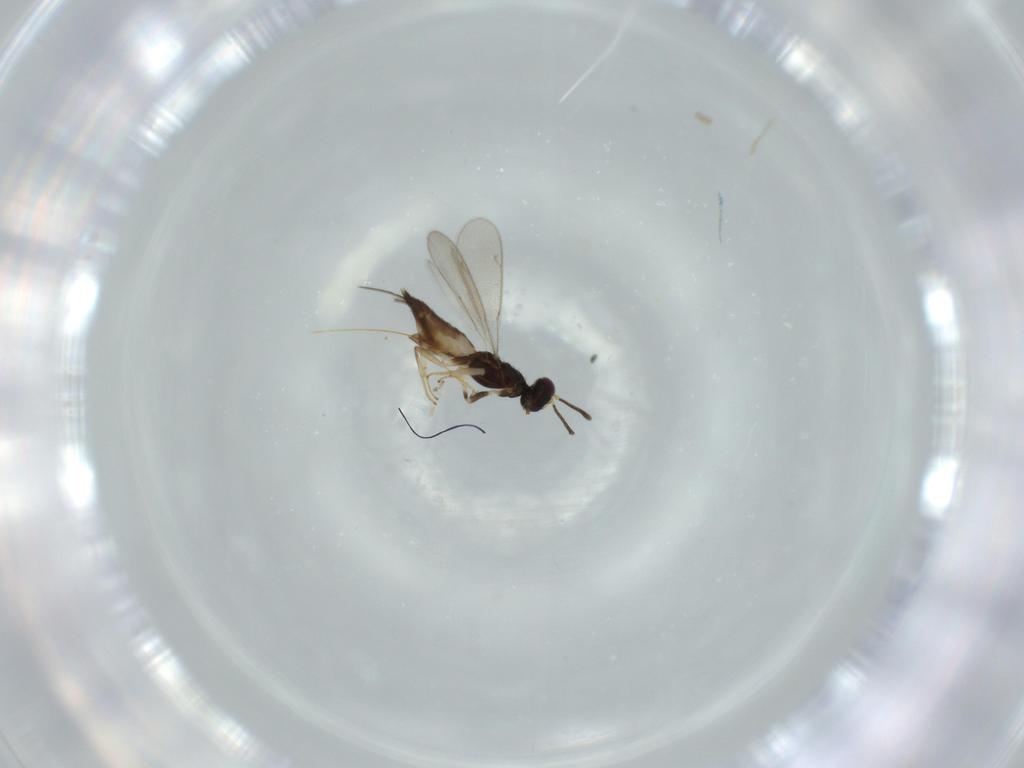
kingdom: Animalia
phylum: Arthropoda
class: Insecta
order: Hymenoptera
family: Eupelmidae
